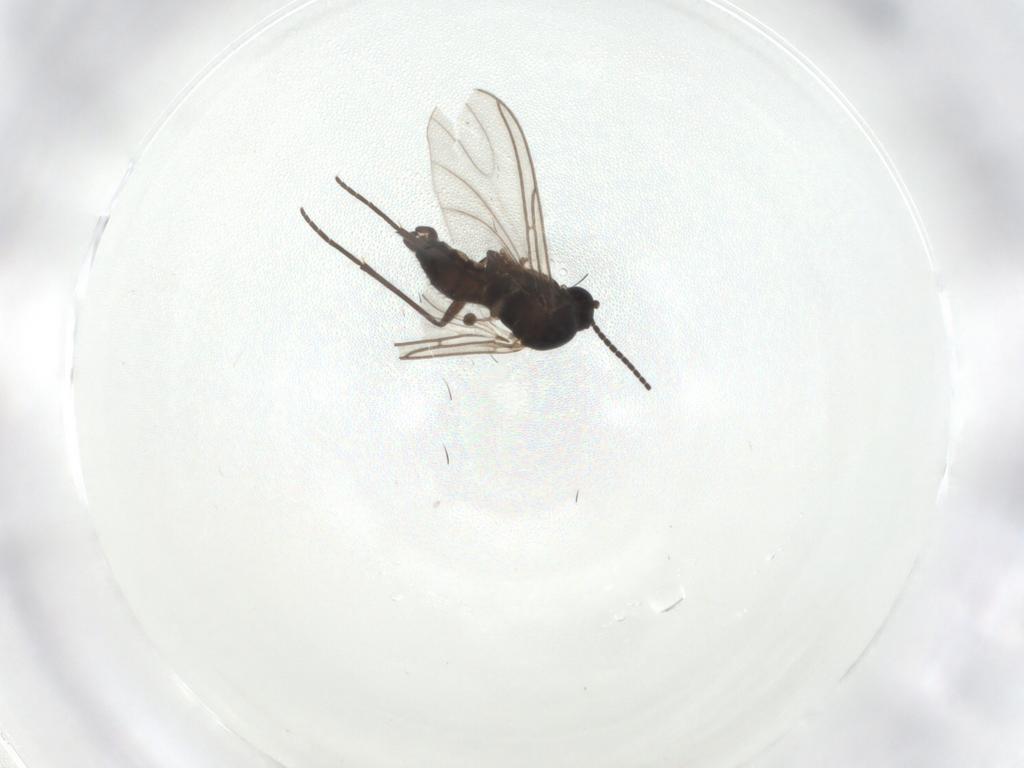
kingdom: Animalia
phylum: Arthropoda
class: Insecta
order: Diptera
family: Sciaridae
